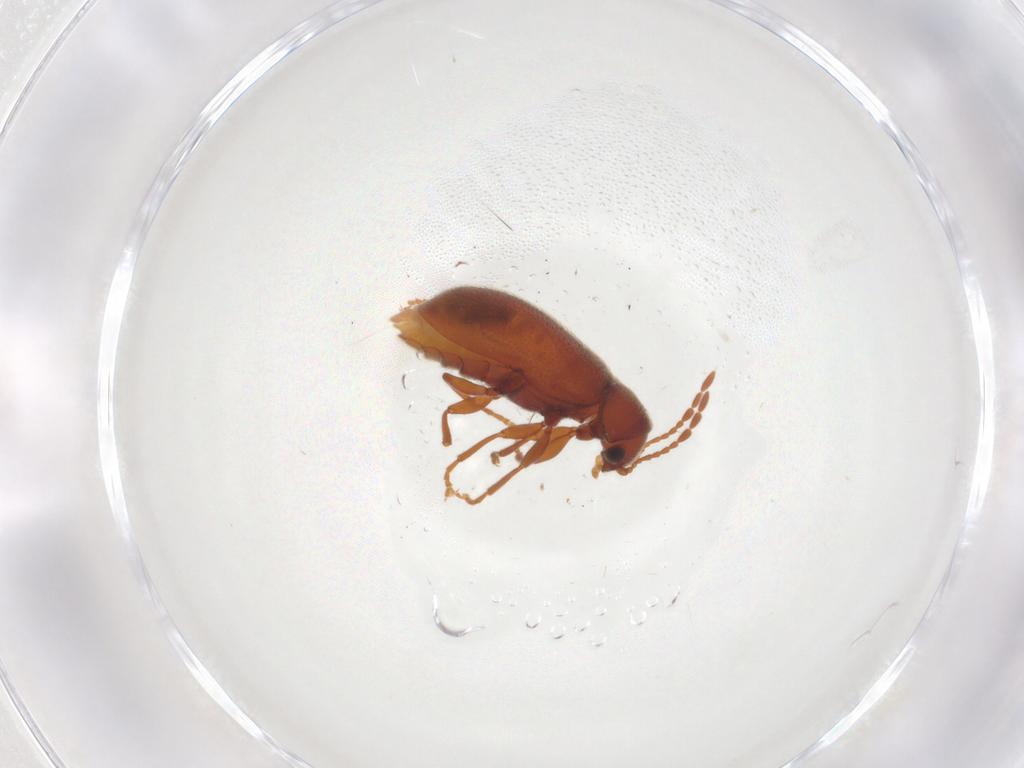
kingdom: Animalia
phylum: Arthropoda
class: Insecta
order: Coleoptera
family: Ptinidae
